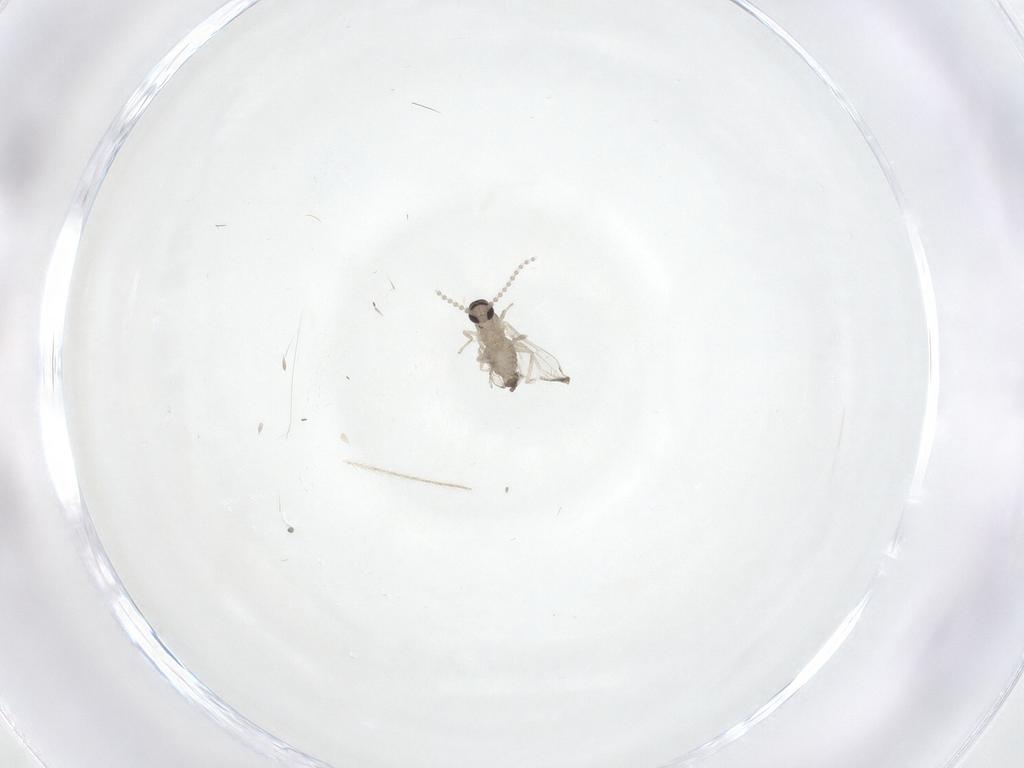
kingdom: Animalia
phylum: Arthropoda
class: Insecta
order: Diptera
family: Cecidomyiidae
